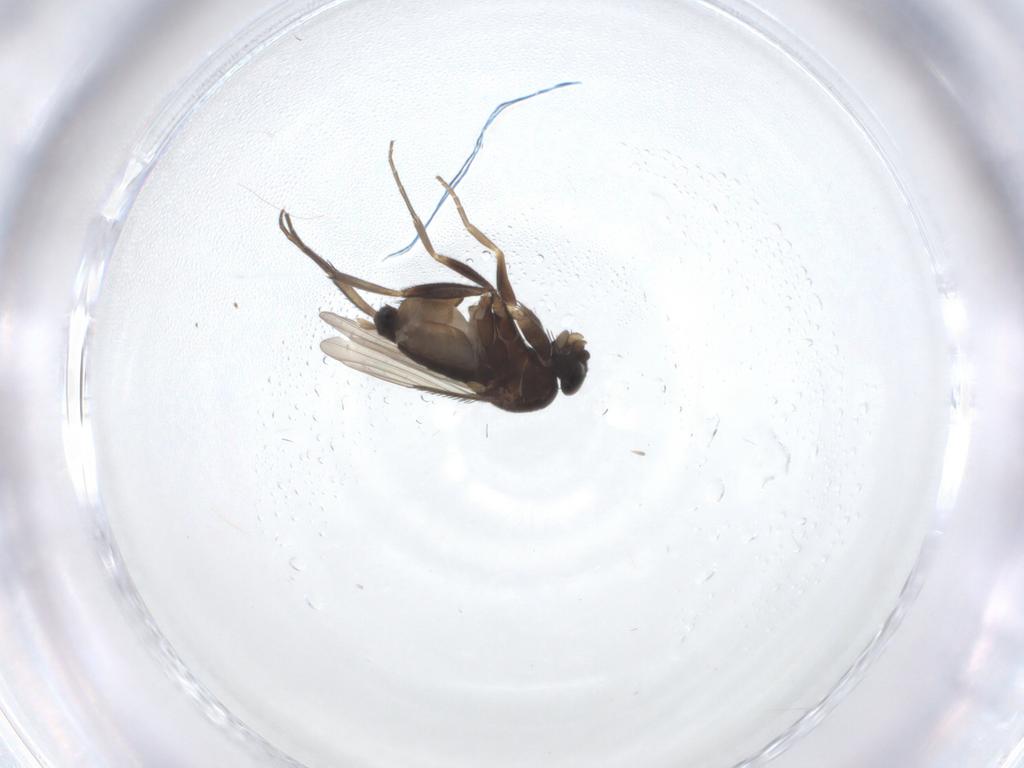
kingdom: Animalia
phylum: Arthropoda
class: Insecta
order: Diptera
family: Phoridae
